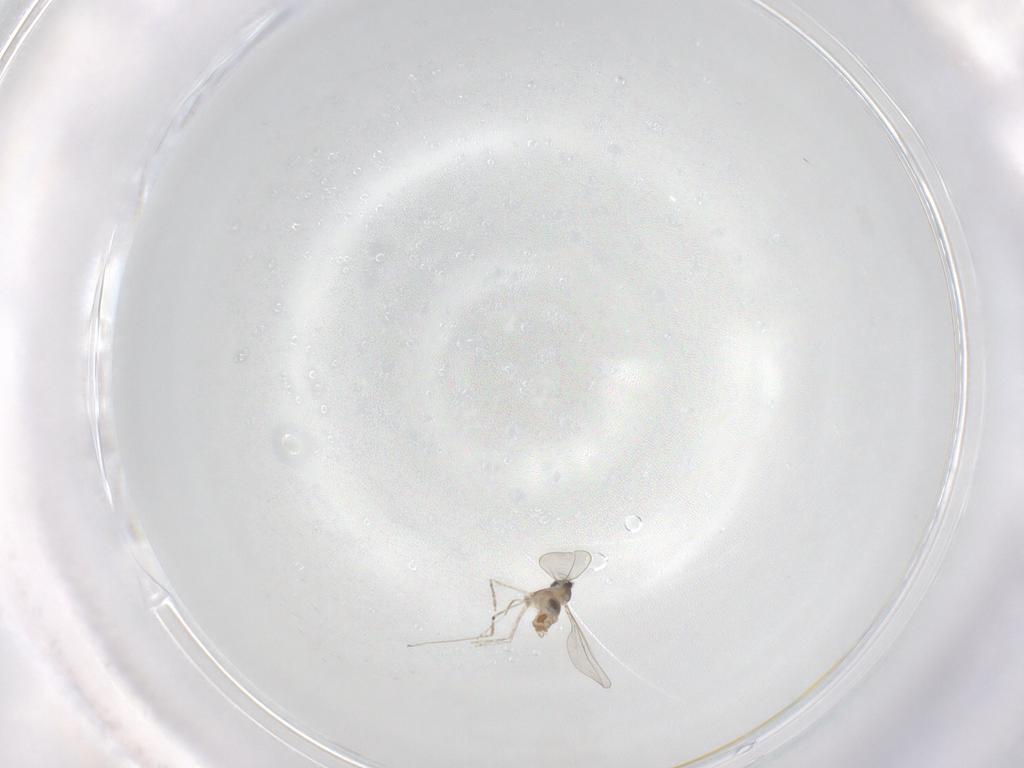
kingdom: Animalia
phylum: Arthropoda
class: Insecta
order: Diptera
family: Cecidomyiidae
